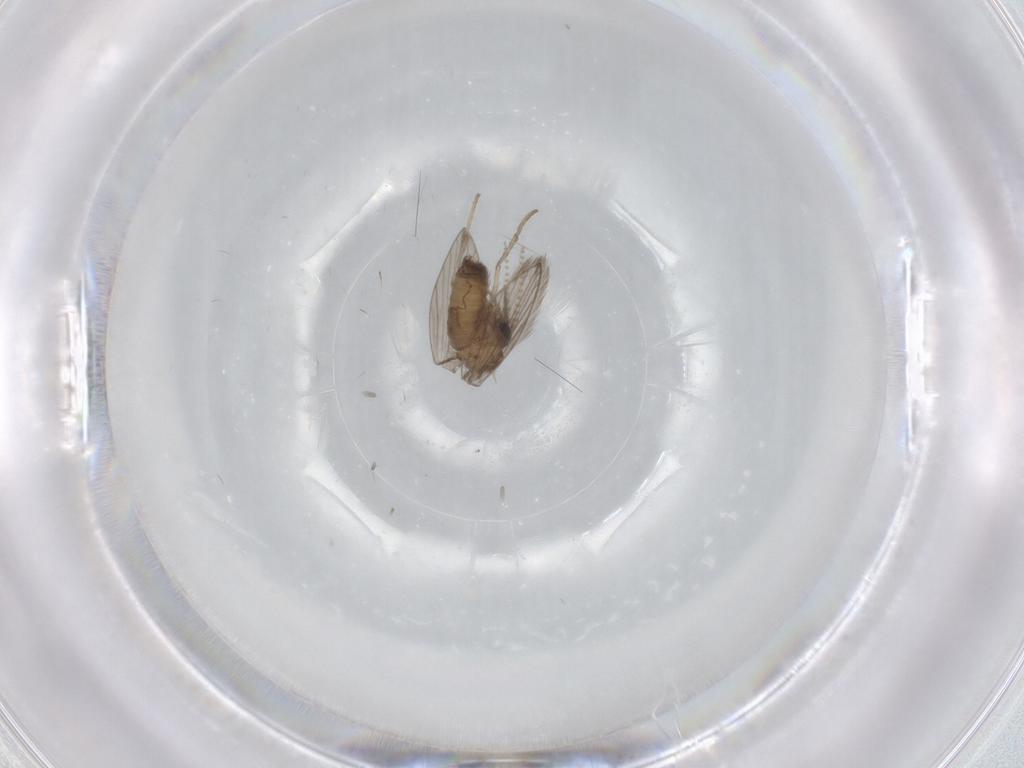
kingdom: Animalia
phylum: Arthropoda
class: Insecta
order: Diptera
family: Psychodidae
